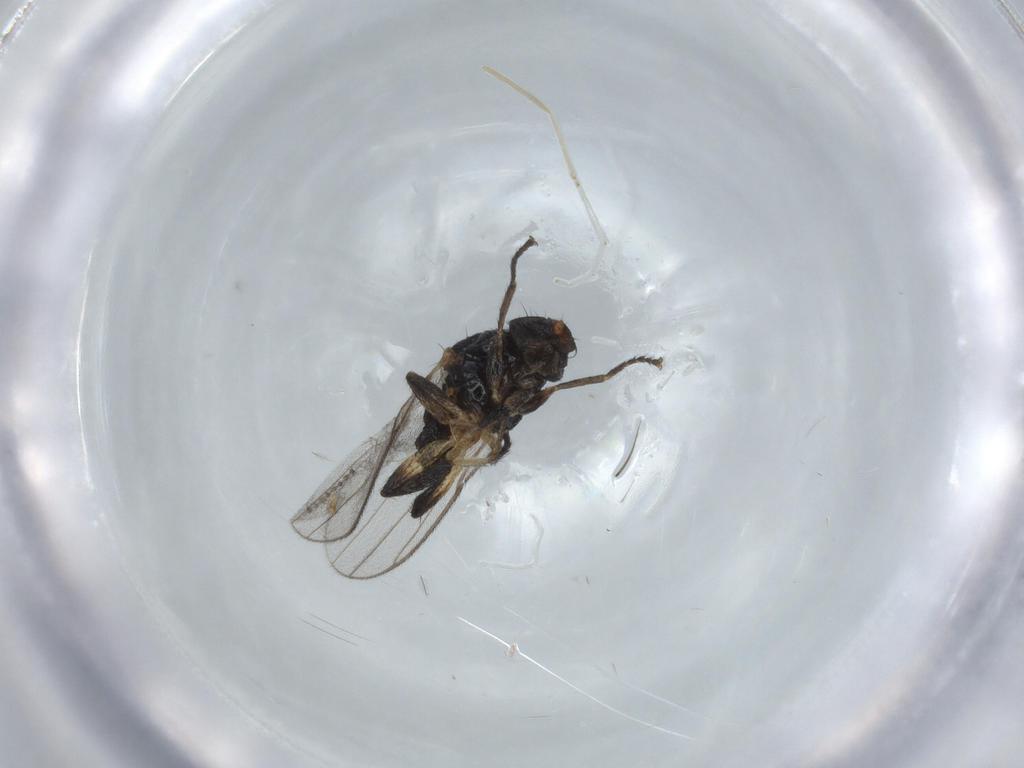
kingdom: Animalia
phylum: Arthropoda
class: Insecta
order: Diptera
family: Chloropidae
